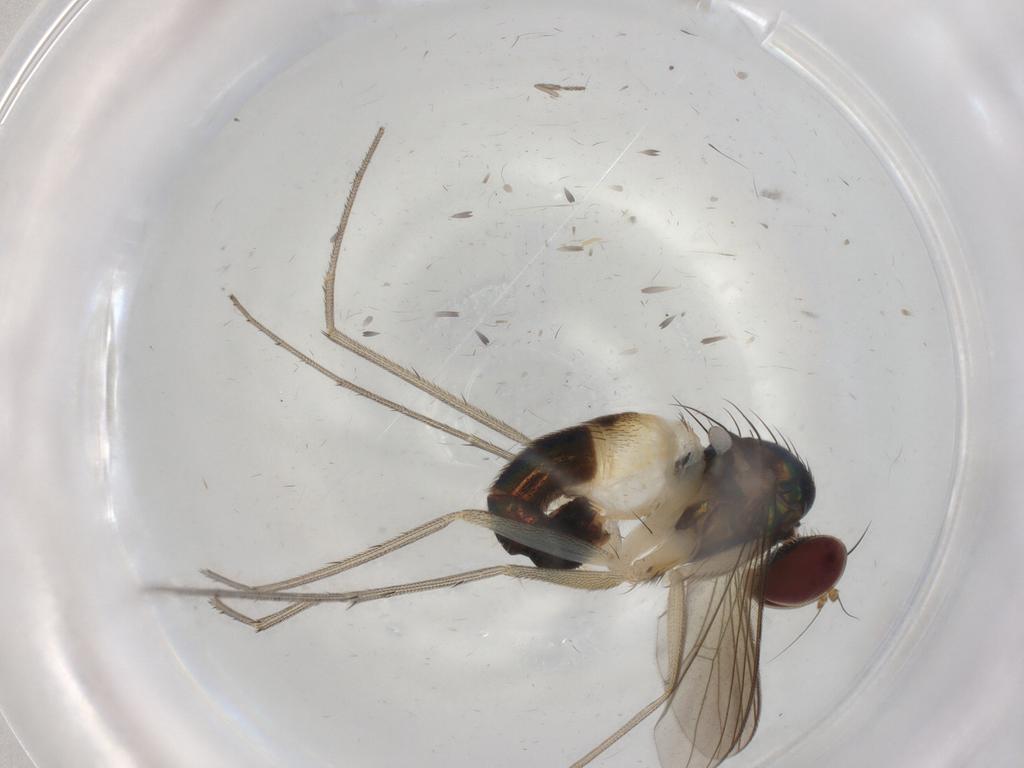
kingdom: Animalia
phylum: Arthropoda
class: Insecta
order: Diptera
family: Dolichopodidae
